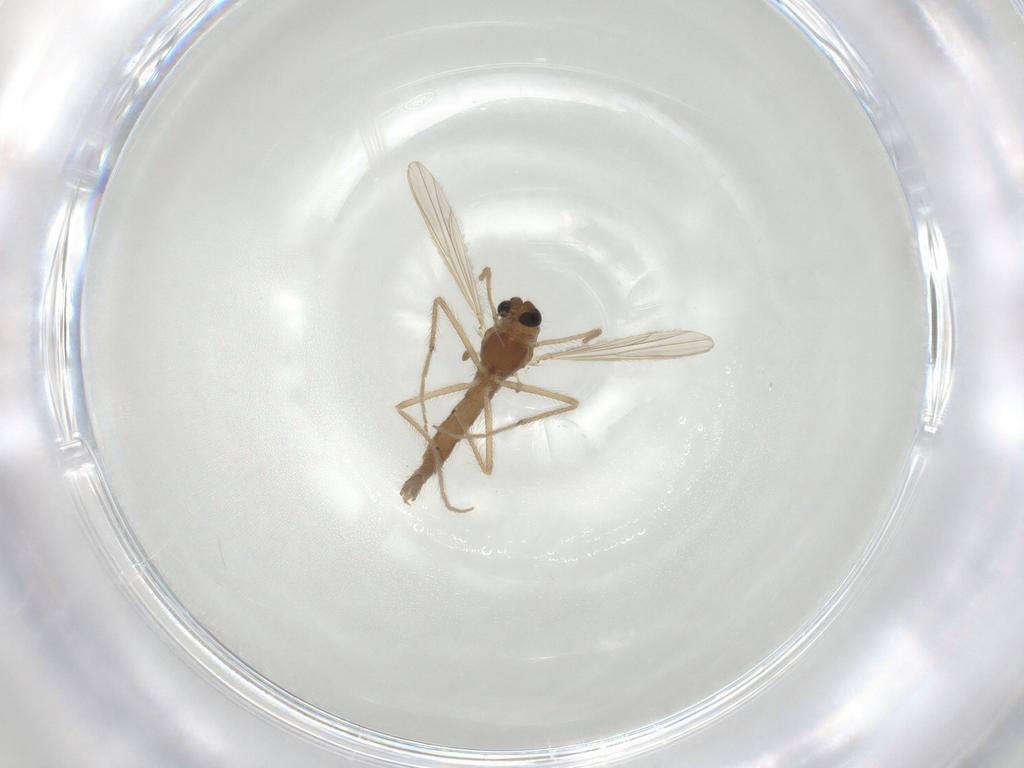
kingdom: Animalia
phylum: Arthropoda
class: Insecta
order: Diptera
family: Chironomidae
